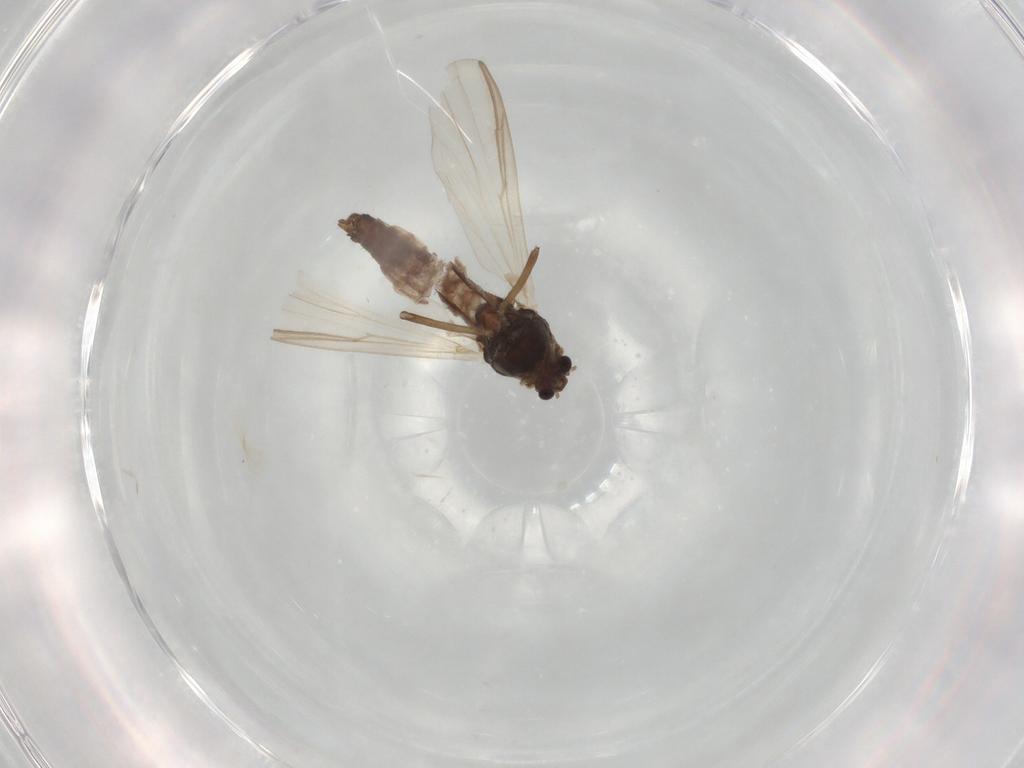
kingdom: Animalia
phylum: Arthropoda
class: Insecta
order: Diptera
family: Chironomidae
